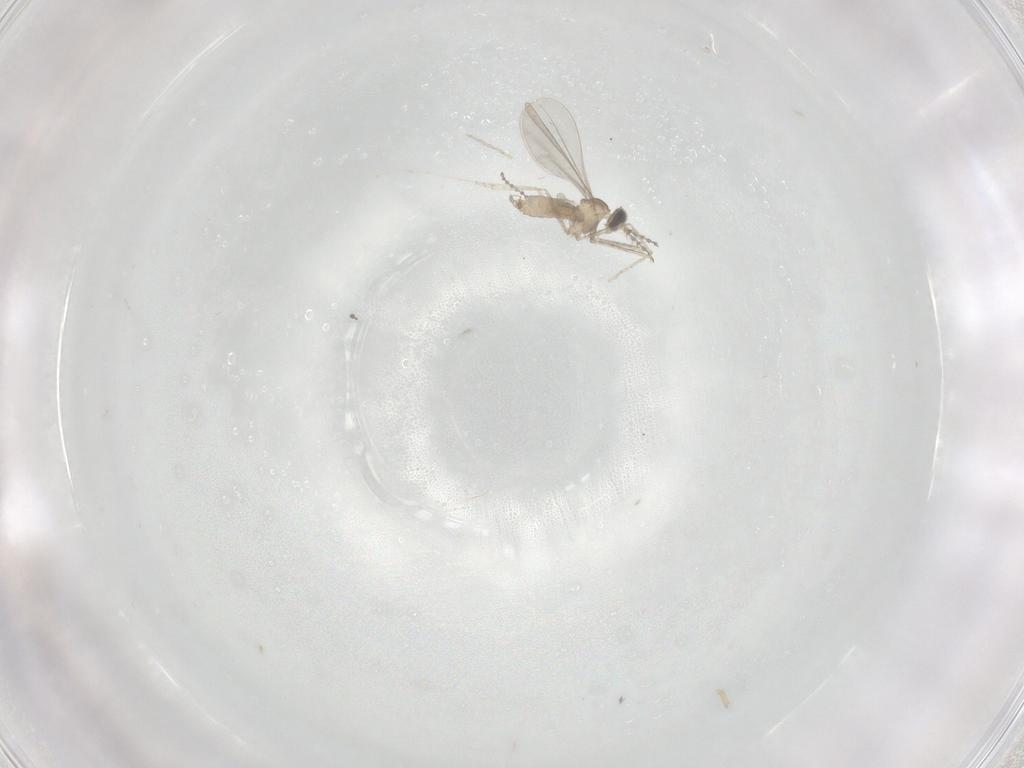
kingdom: Animalia
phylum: Arthropoda
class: Insecta
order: Diptera
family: Cecidomyiidae
